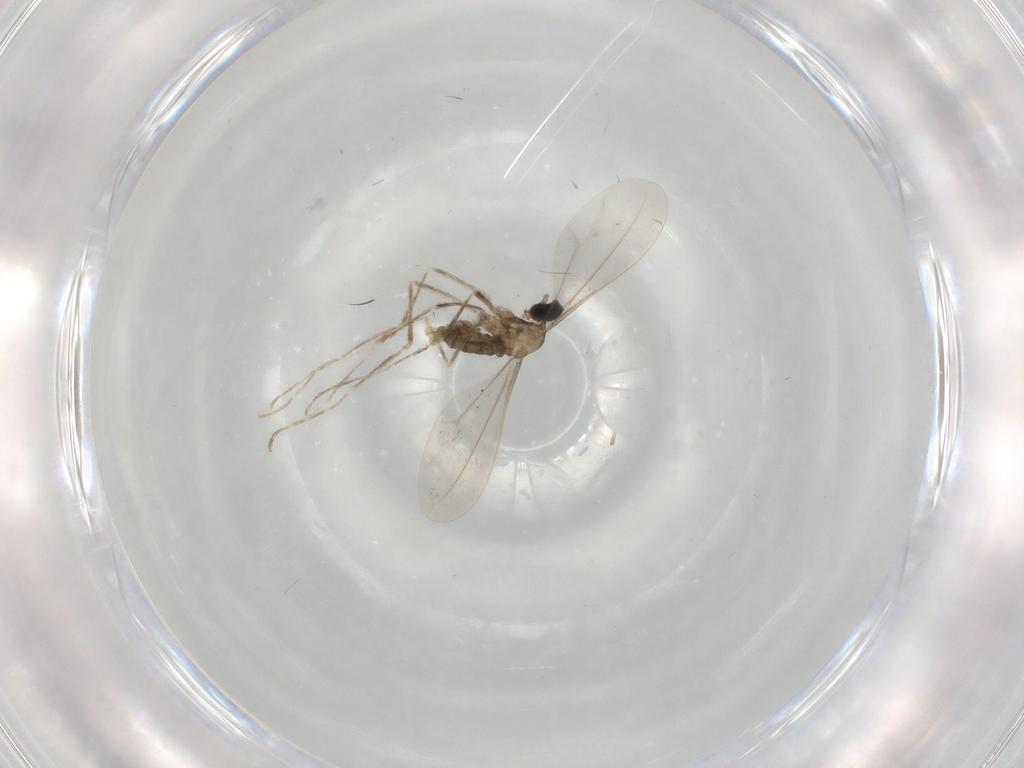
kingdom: Animalia
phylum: Arthropoda
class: Insecta
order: Diptera
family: Cecidomyiidae
